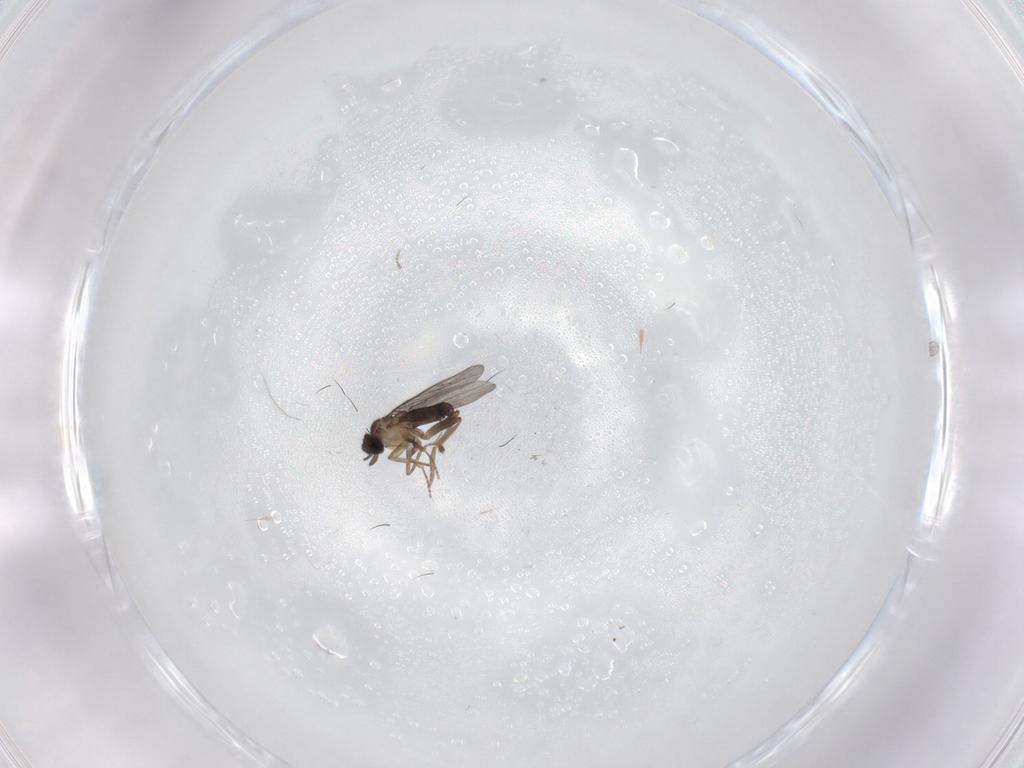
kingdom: Animalia
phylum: Arthropoda
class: Insecta
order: Diptera
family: Phoridae
